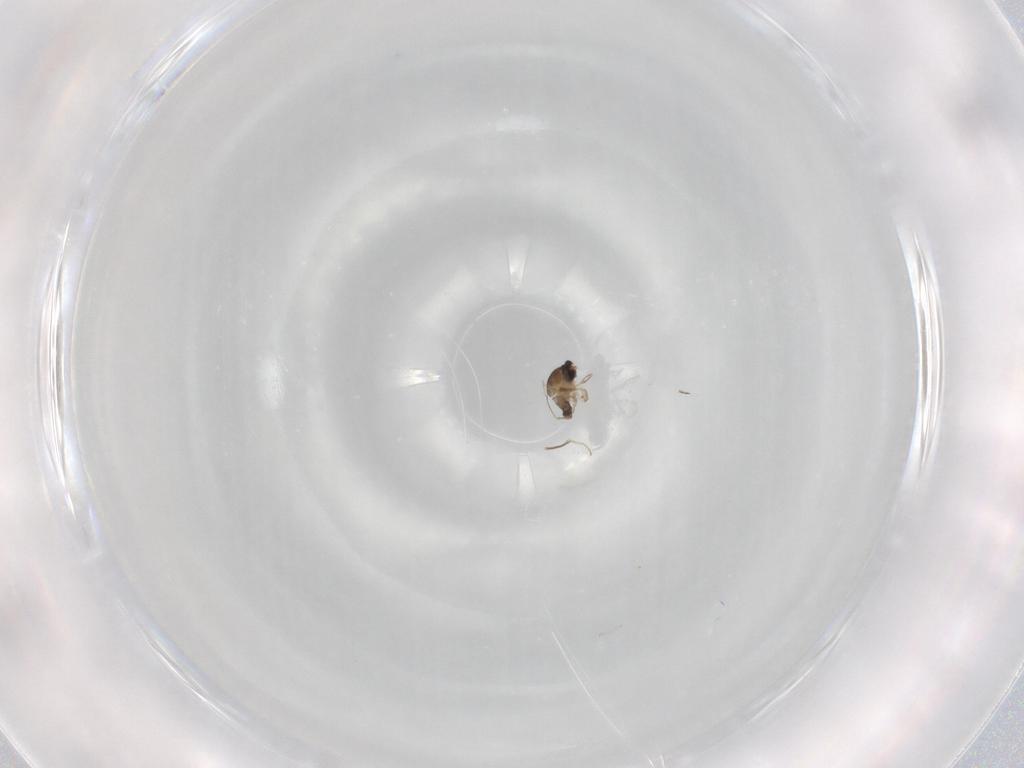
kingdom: Animalia
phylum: Arthropoda
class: Insecta
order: Diptera
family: Cecidomyiidae
